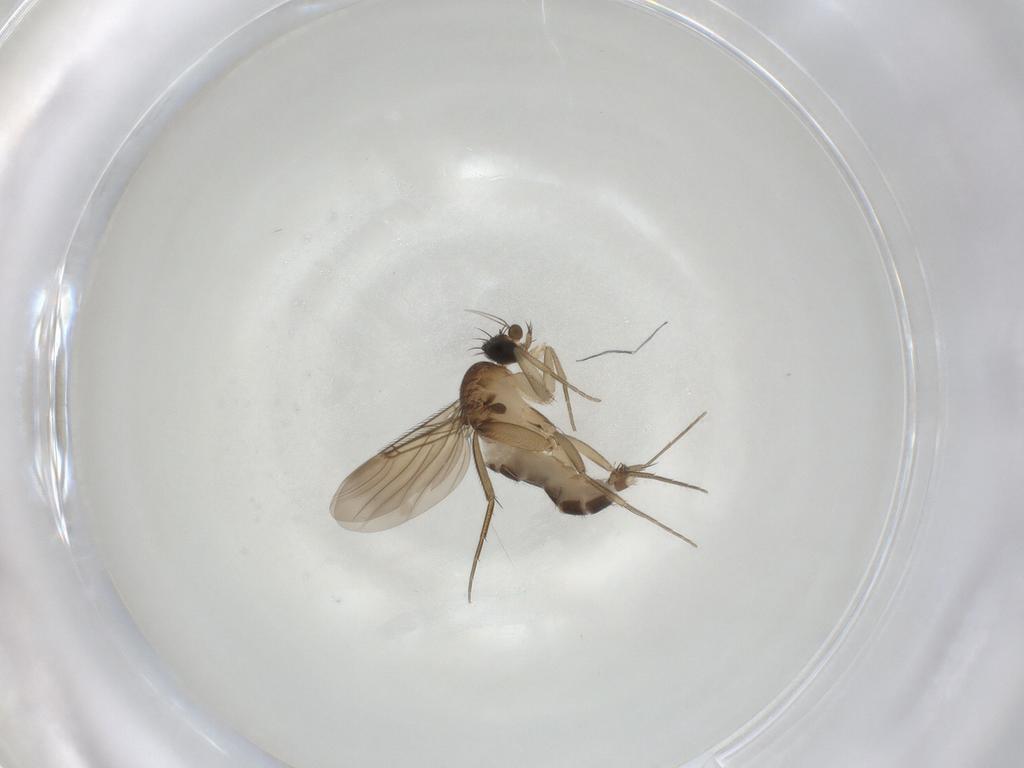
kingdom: Animalia
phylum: Arthropoda
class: Insecta
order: Diptera
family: Phoridae
